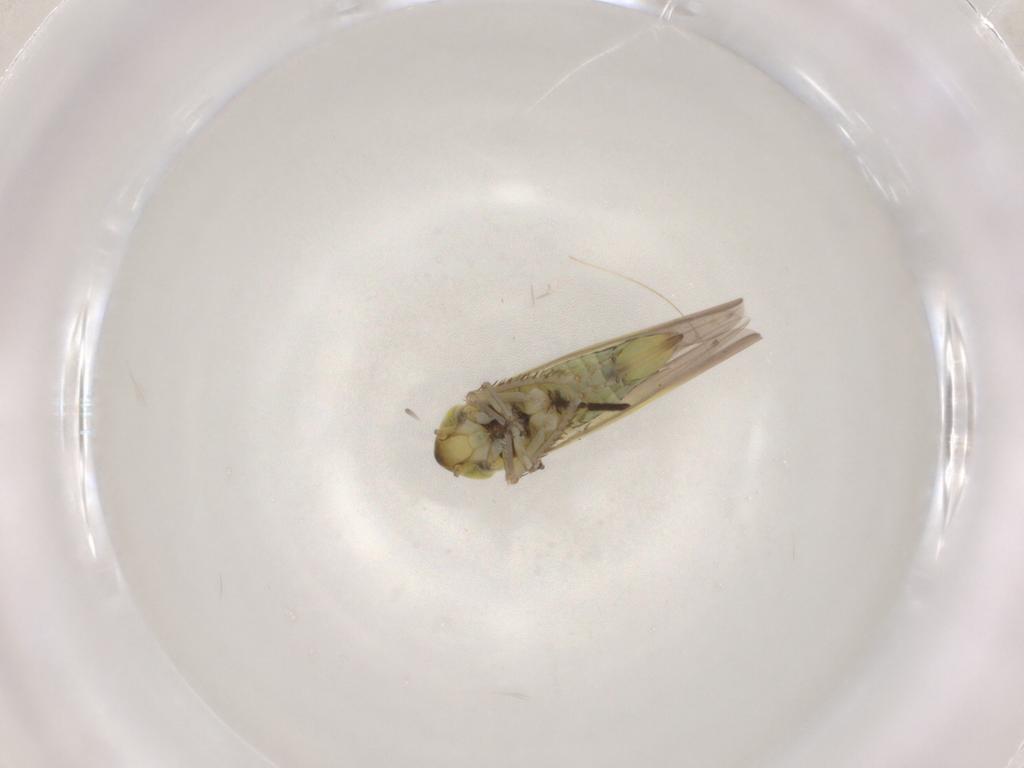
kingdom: Animalia
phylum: Arthropoda
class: Insecta
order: Hemiptera
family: Cicadellidae
